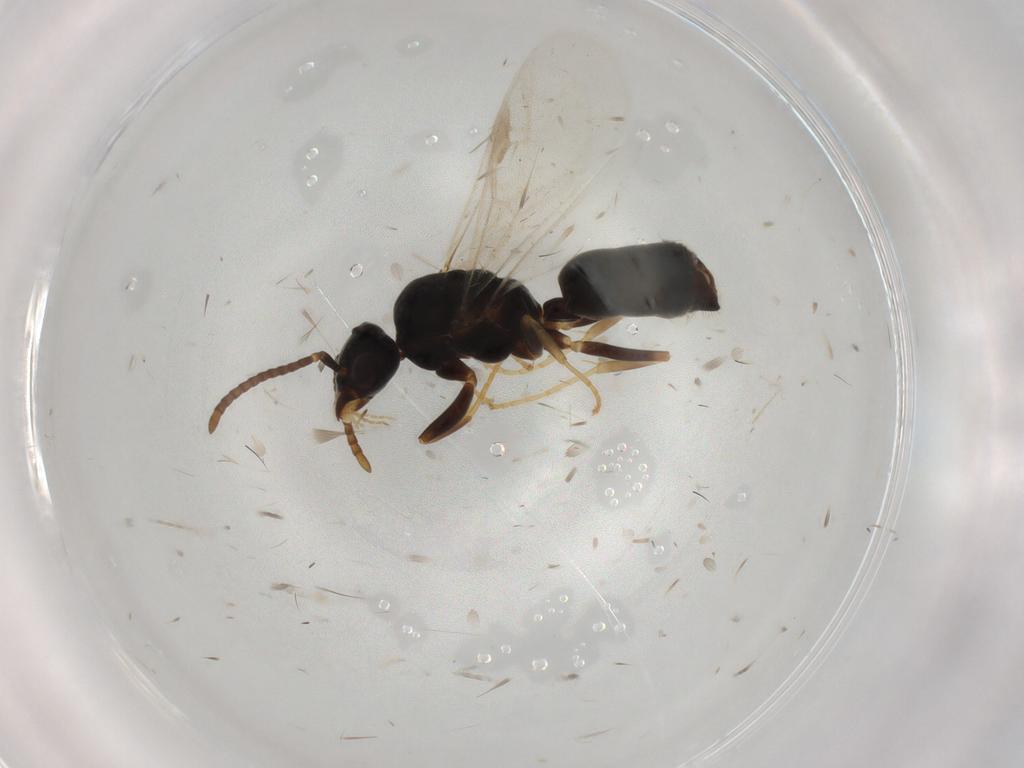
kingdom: Animalia
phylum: Arthropoda
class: Insecta
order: Hymenoptera
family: Formicidae
